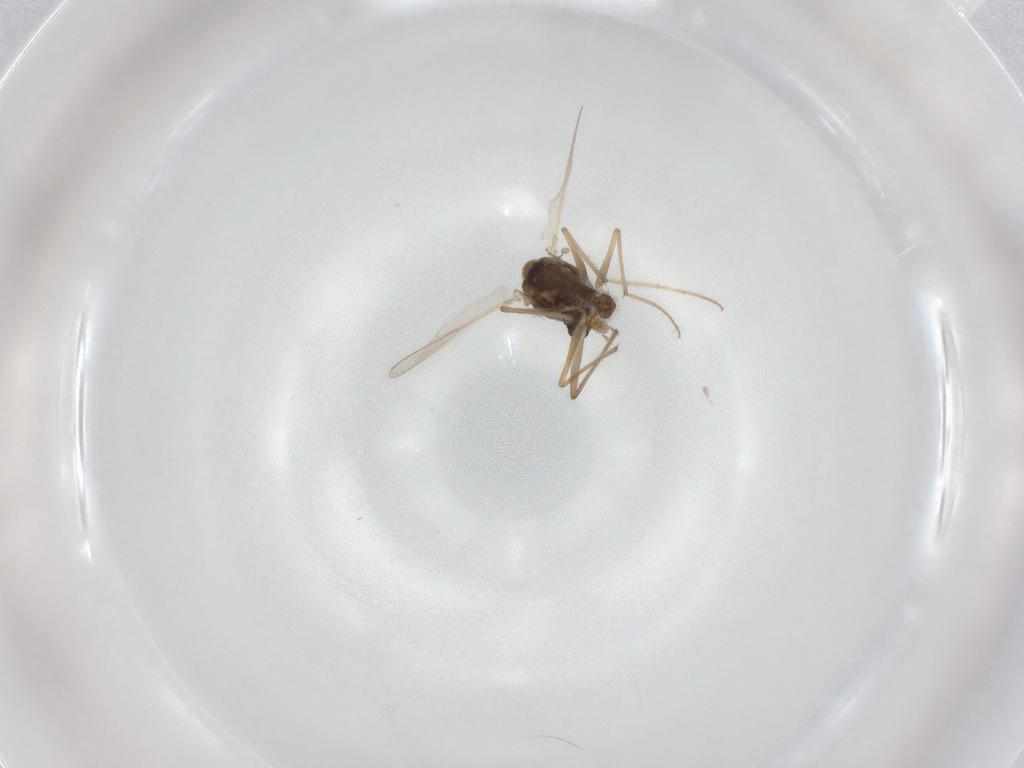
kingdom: Animalia
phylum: Arthropoda
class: Insecta
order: Diptera
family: Chironomidae
